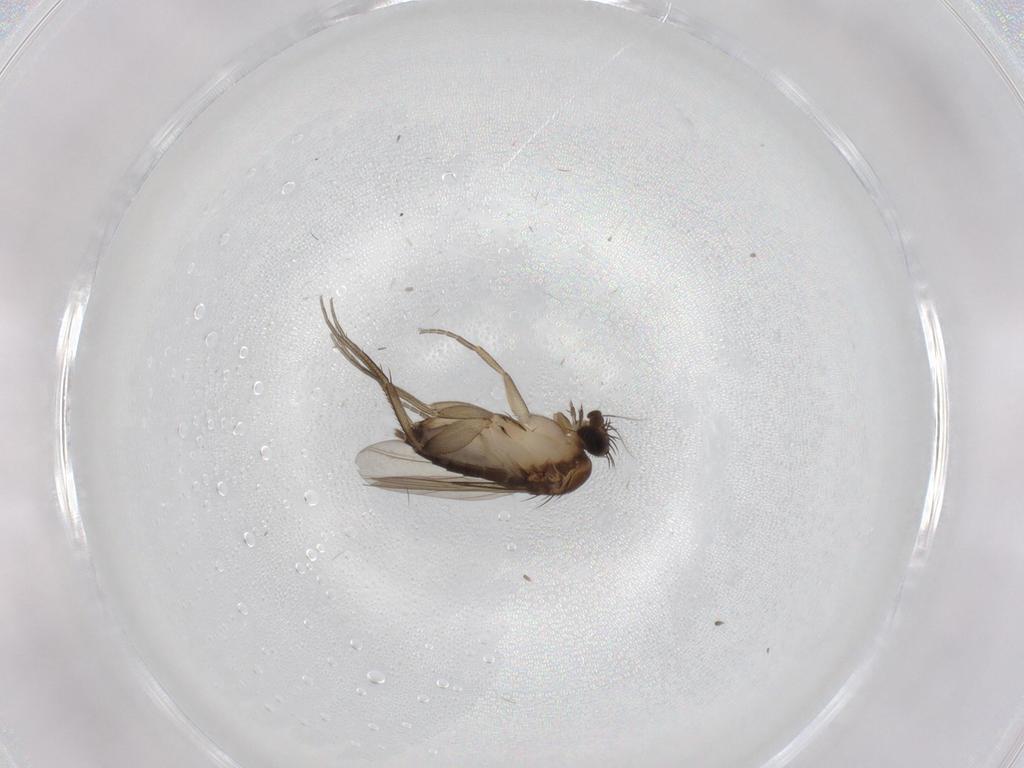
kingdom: Animalia
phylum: Arthropoda
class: Insecta
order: Diptera
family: Phoridae
